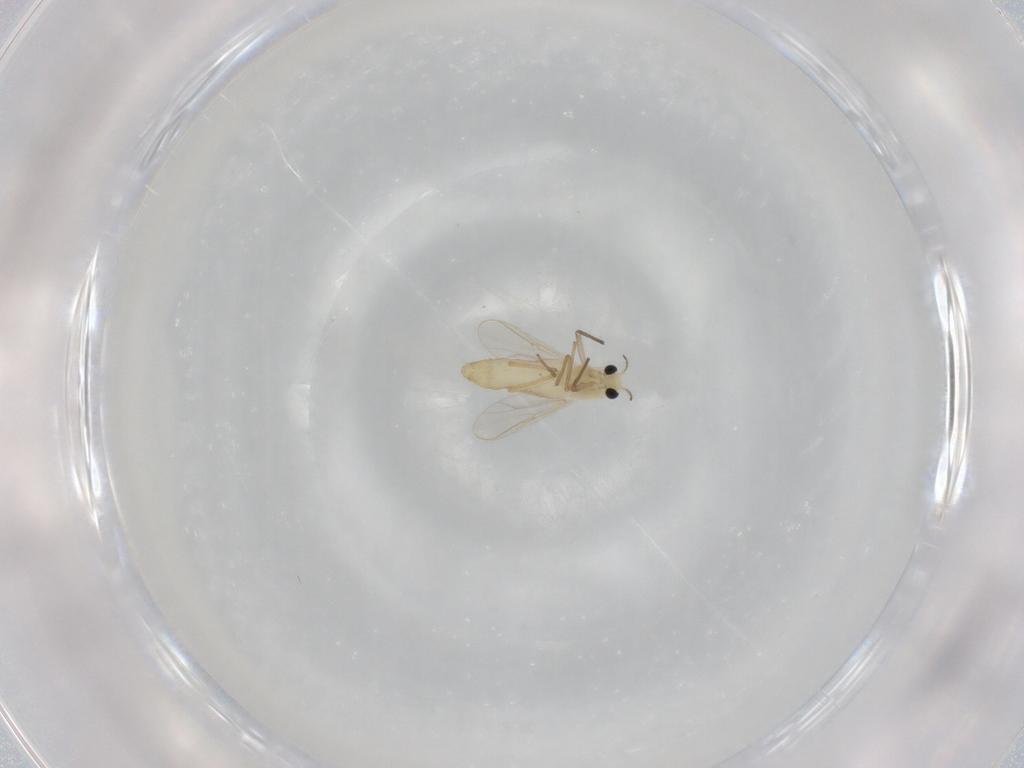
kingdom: Animalia
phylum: Arthropoda
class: Insecta
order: Diptera
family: Chironomidae
